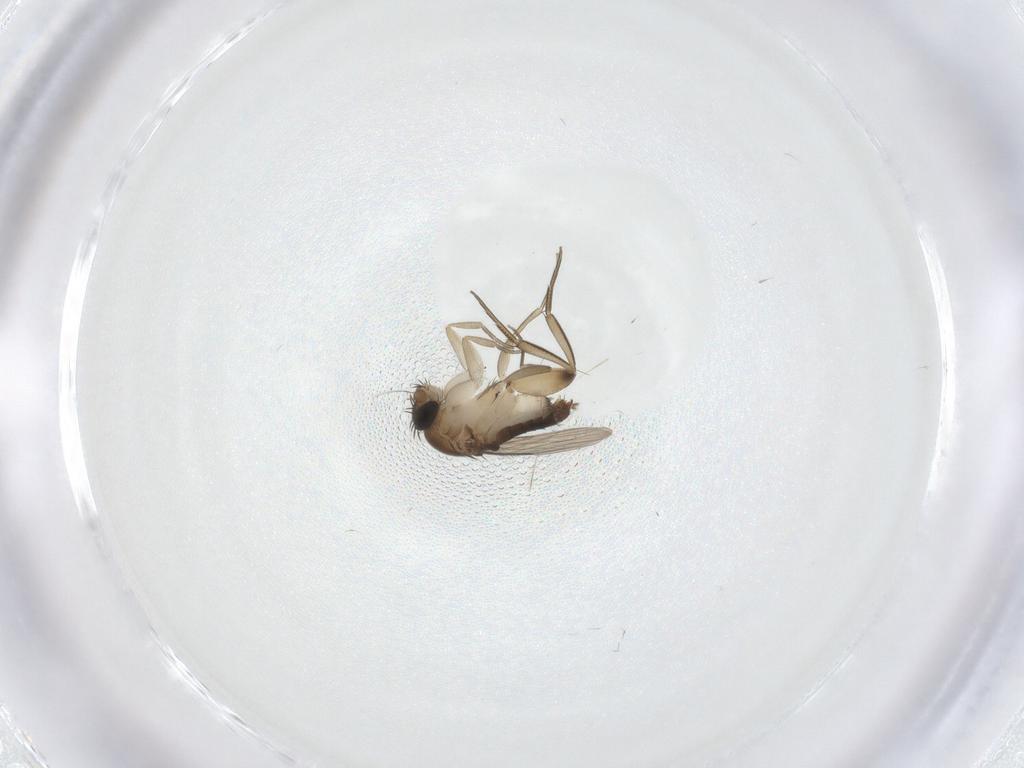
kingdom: Animalia
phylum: Arthropoda
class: Insecta
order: Diptera
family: Phoridae
